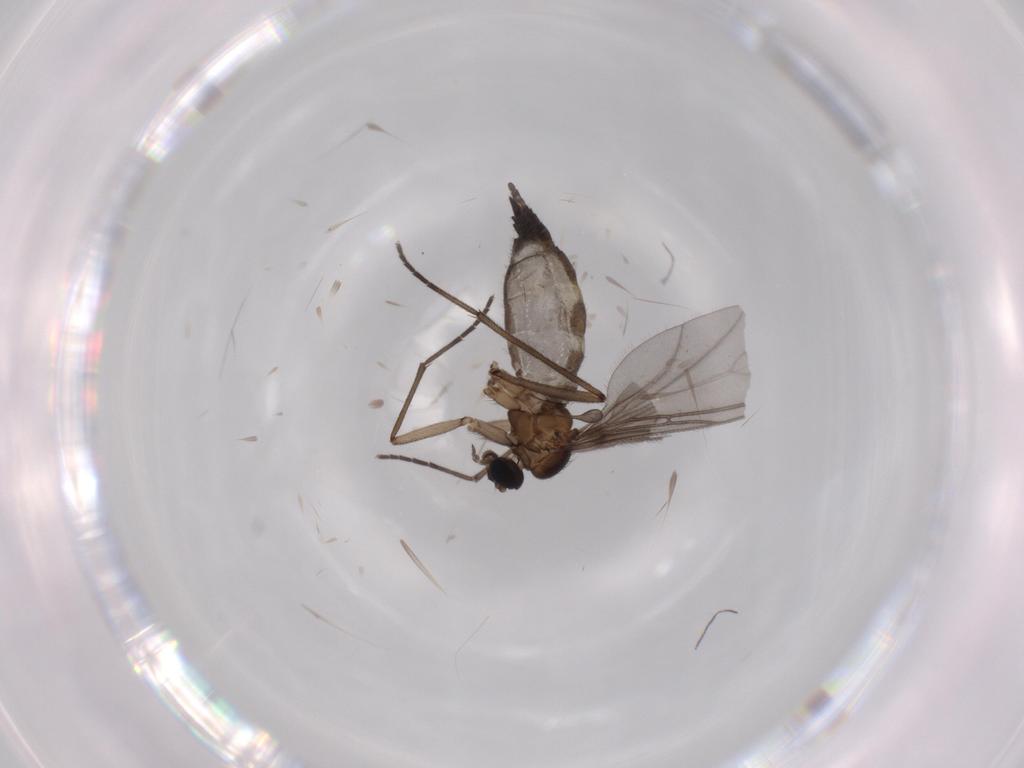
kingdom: Animalia
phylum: Arthropoda
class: Insecta
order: Diptera
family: Sciaridae
